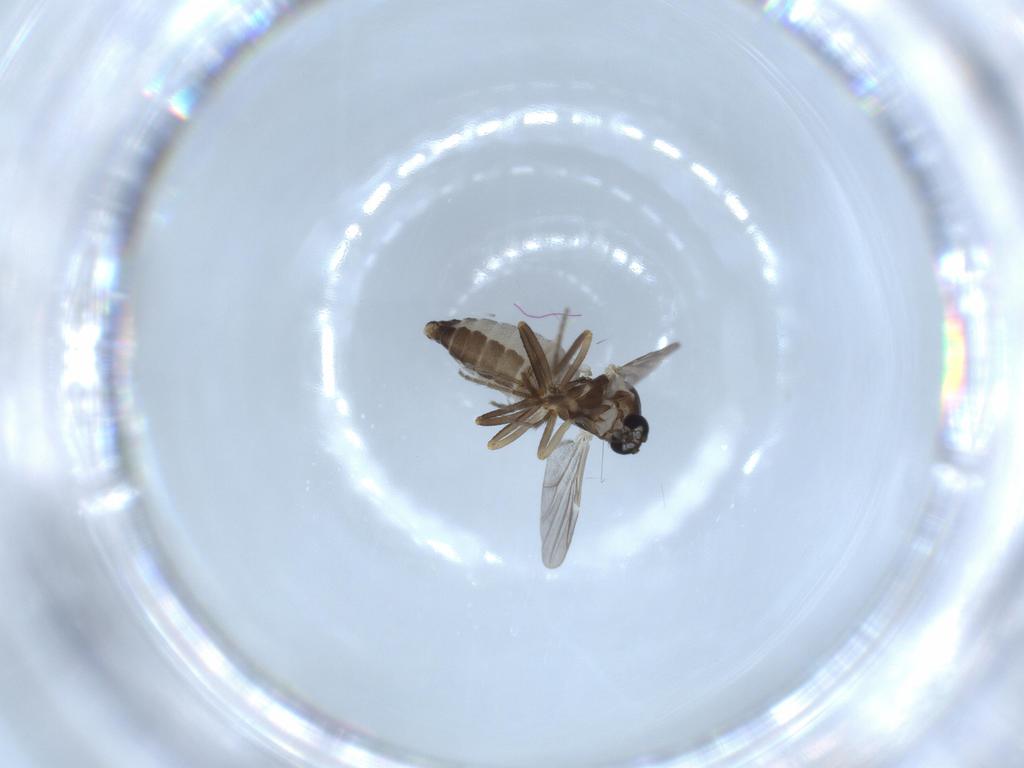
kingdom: Animalia
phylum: Arthropoda
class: Insecta
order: Diptera
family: Ceratopogonidae
